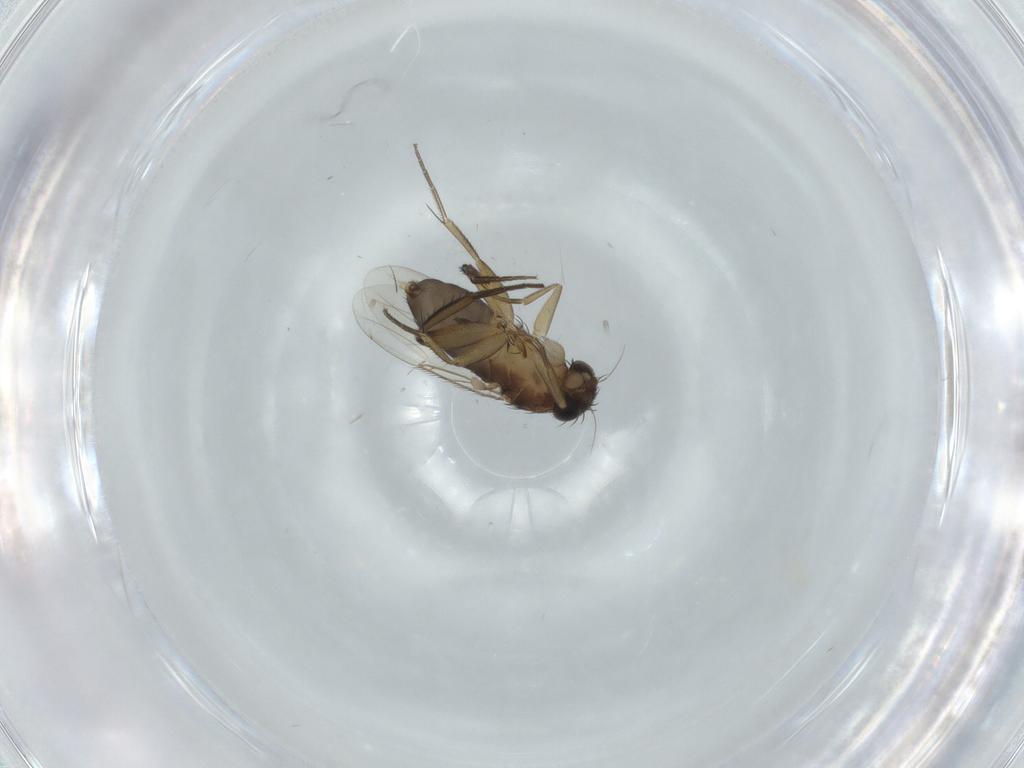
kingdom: Animalia
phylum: Arthropoda
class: Insecta
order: Diptera
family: Phoridae
